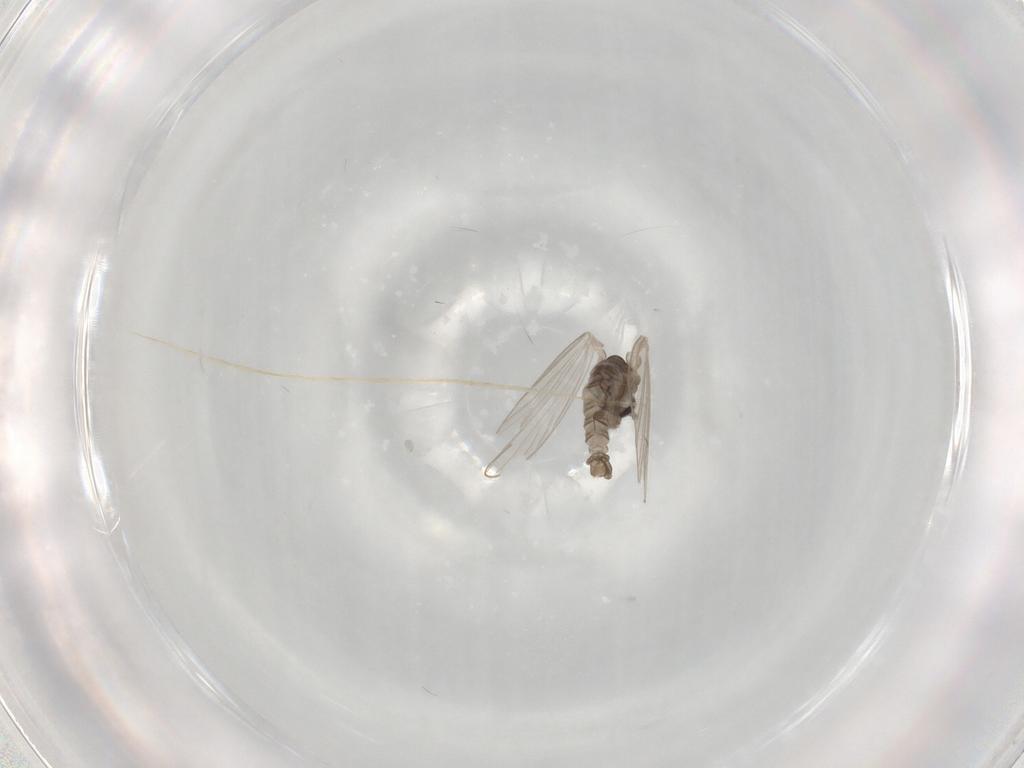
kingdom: Animalia
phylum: Arthropoda
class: Insecta
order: Diptera
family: Psychodidae
